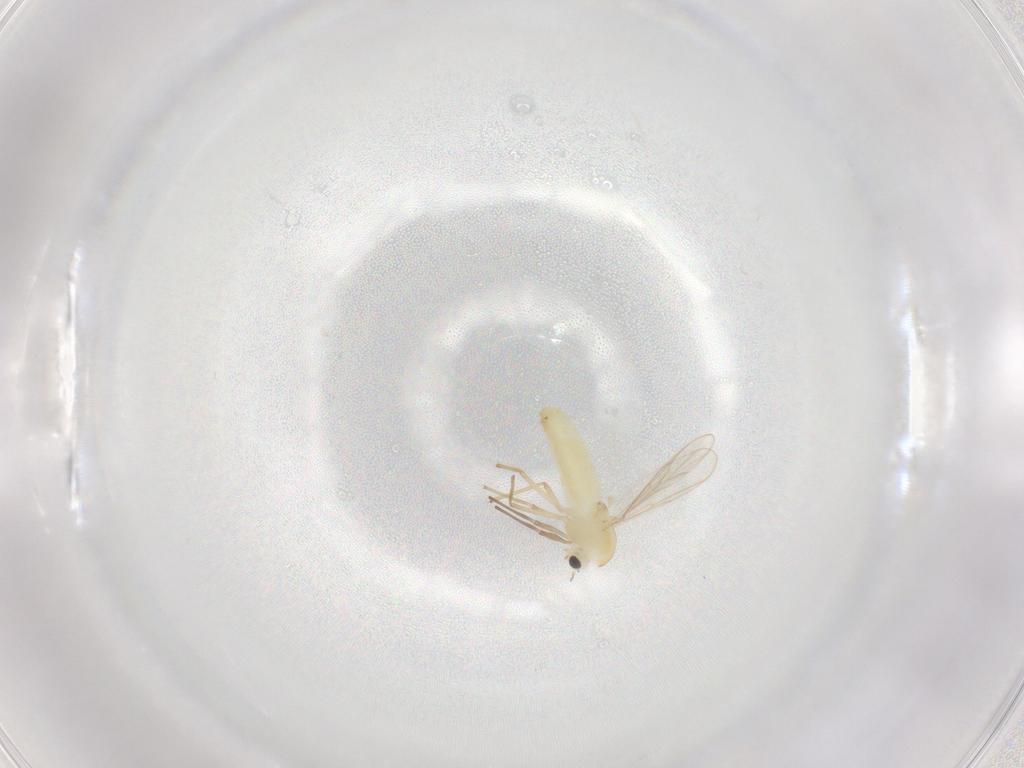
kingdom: Animalia
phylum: Arthropoda
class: Insecta
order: Diptera
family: Chironomidae
